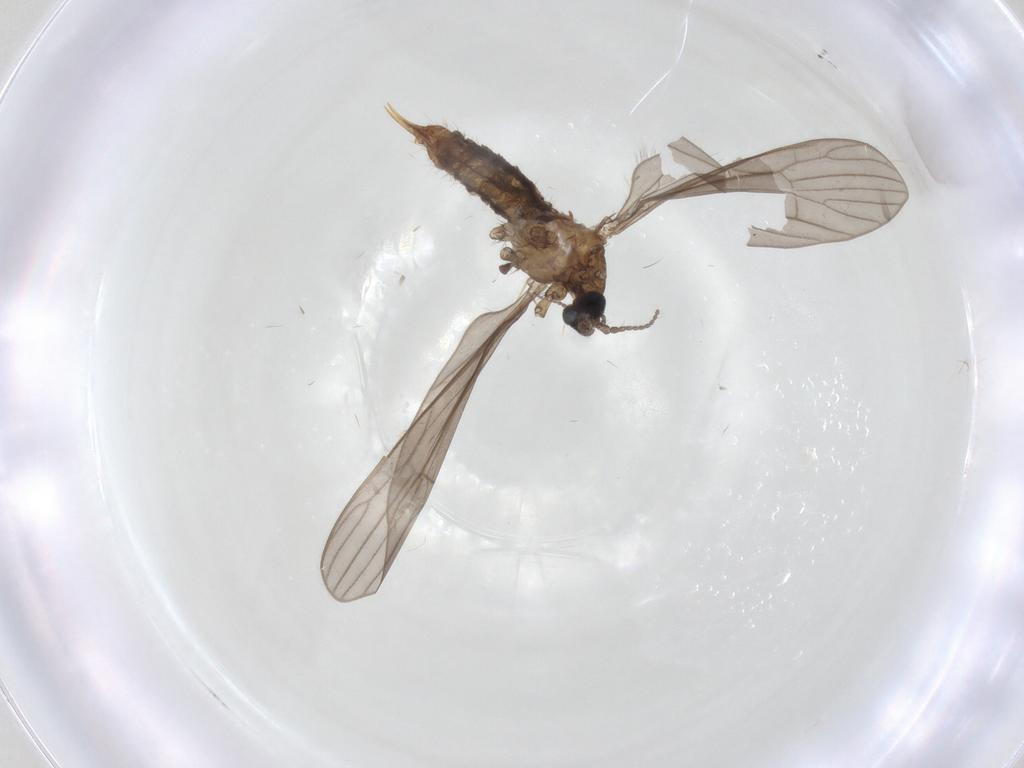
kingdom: Animalia
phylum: Arthropoda
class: Insecta
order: Diptera
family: Limoniidae
